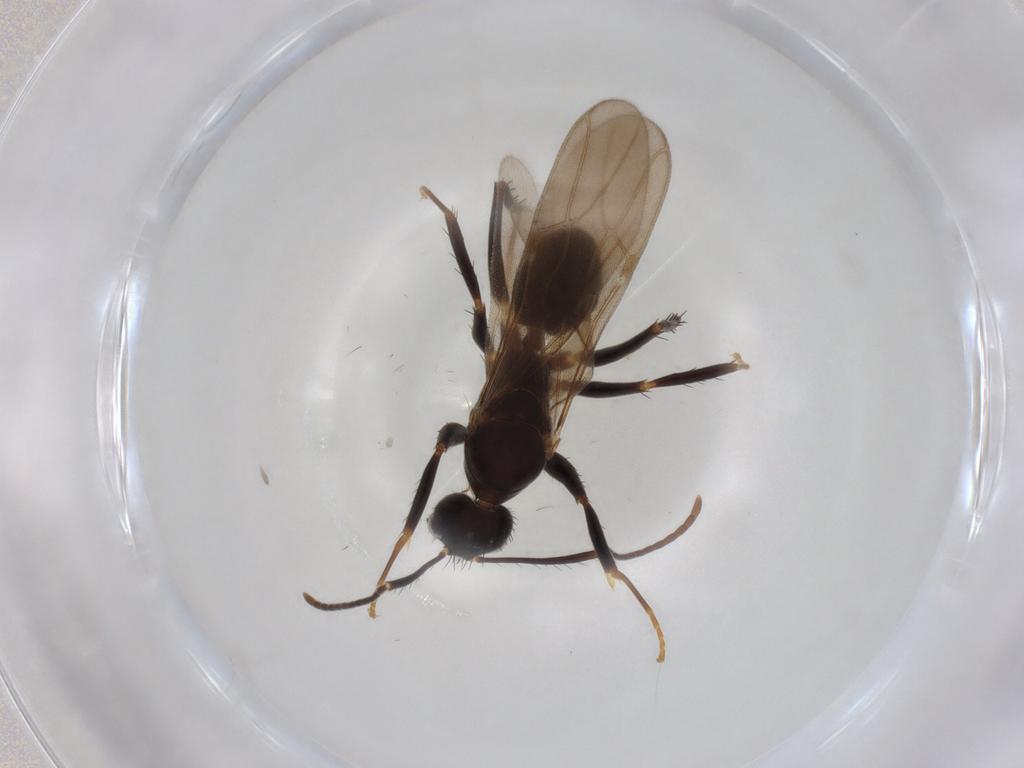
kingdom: Animalia
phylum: Arthropoda
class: Insecta
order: Hymenoptera
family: Formicidae
